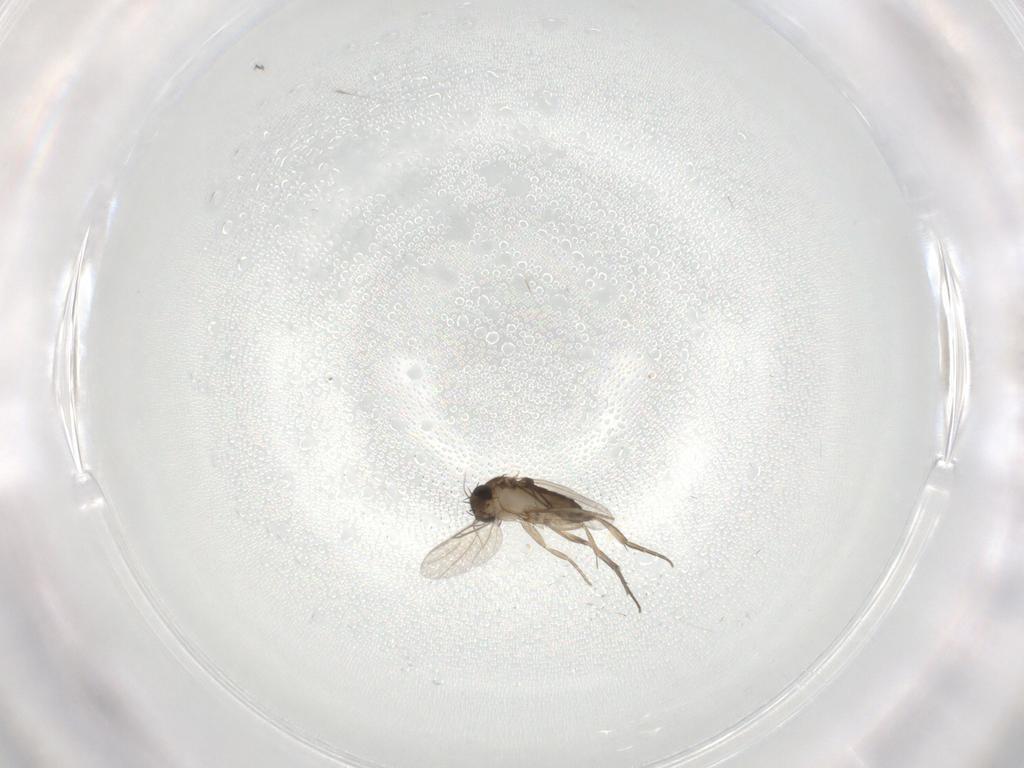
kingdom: Animalia
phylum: Arthropoda
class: Insecta
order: Diptera
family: Phoridae
